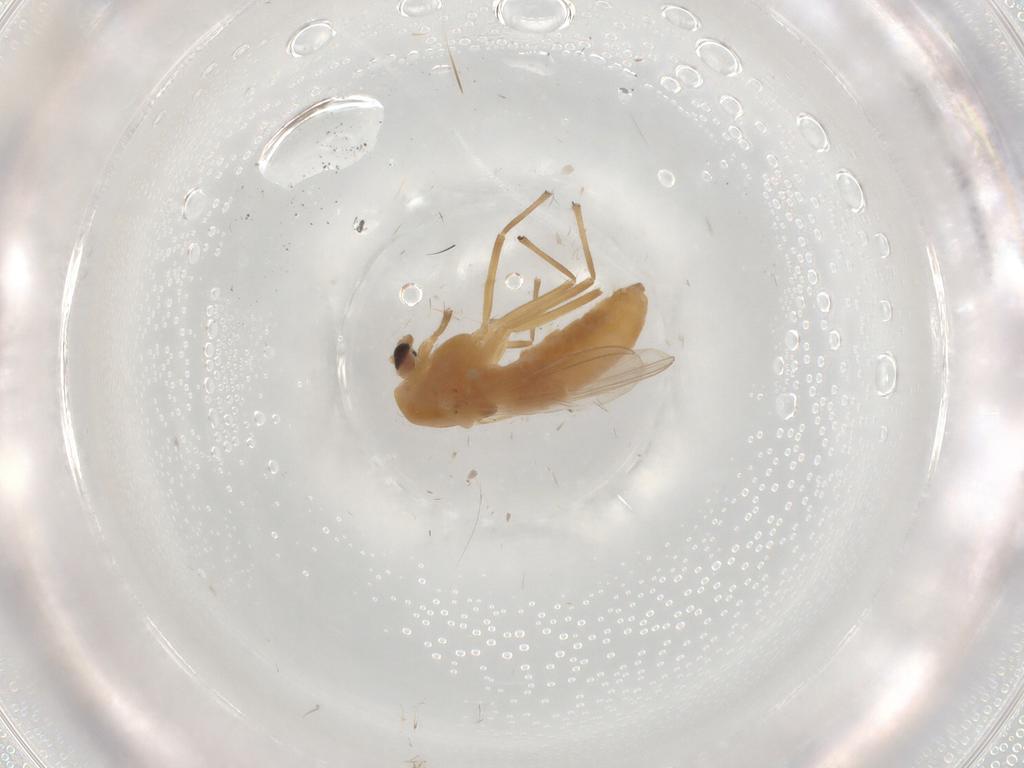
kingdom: Animalia
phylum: Arthropoda
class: Insecta
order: Diptera
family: Chironomidae
